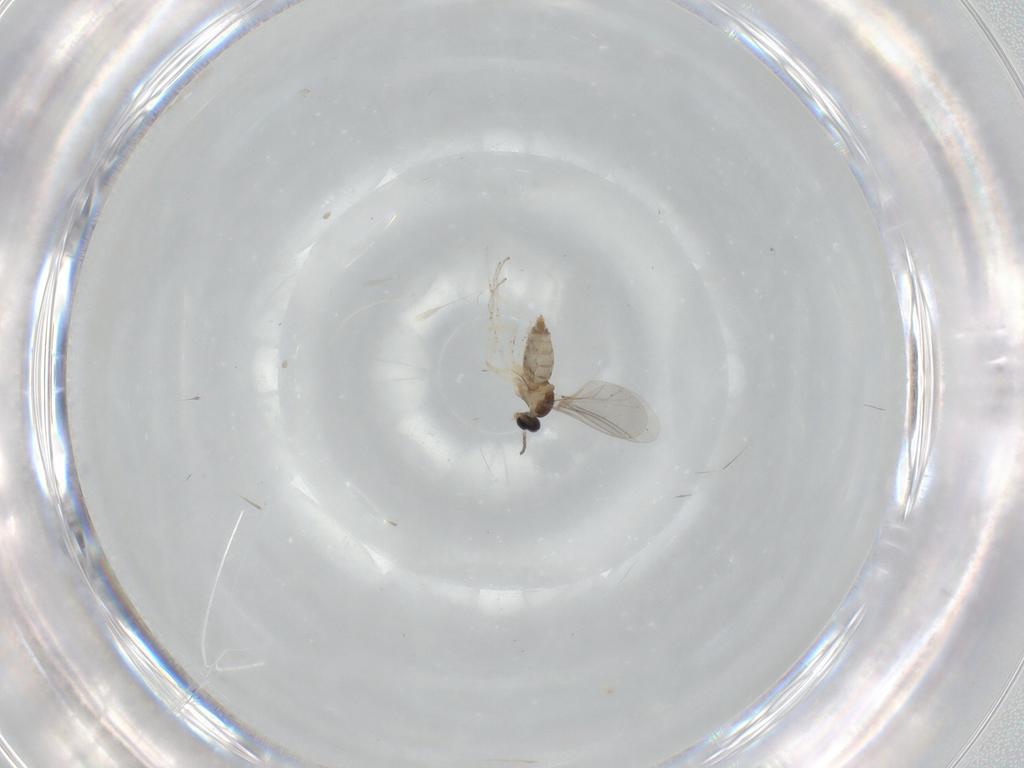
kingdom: Animalia
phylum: Arthropoda
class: Insecta
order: Diptera
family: Cecidomyiidae
